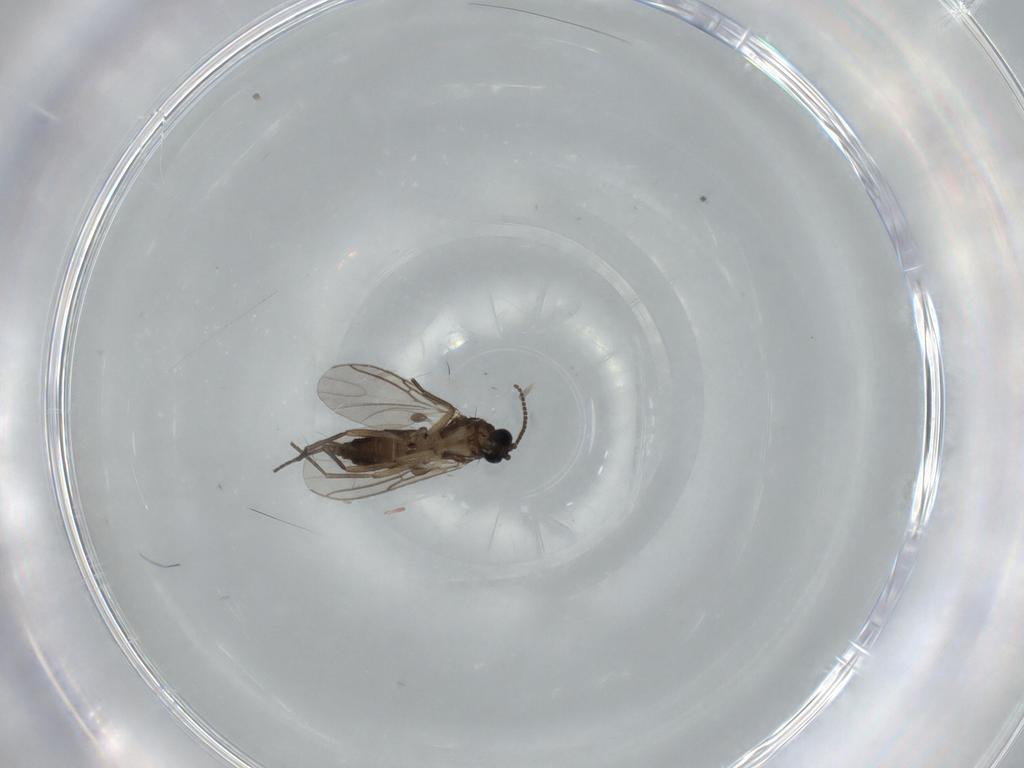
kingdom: Animalia
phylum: Arthropoda
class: Insecta
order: Diptera
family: Sciaridae
